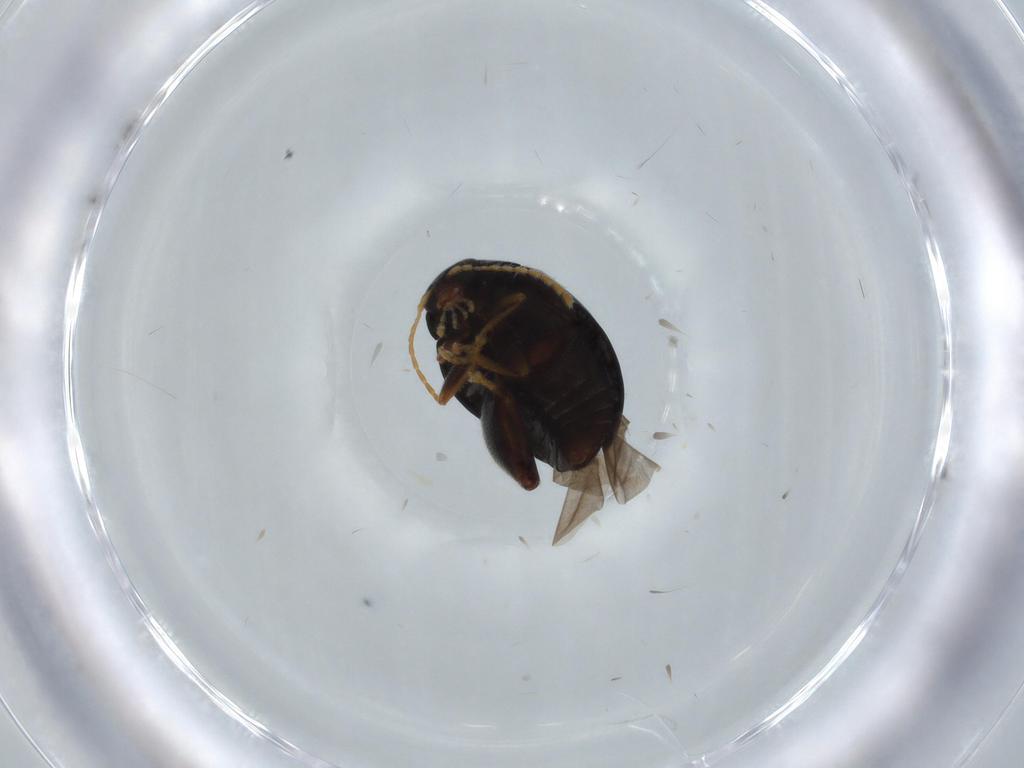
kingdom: Animalia
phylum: Arthropoda
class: Insecta
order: Coleoptera
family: Chrysomelidae
